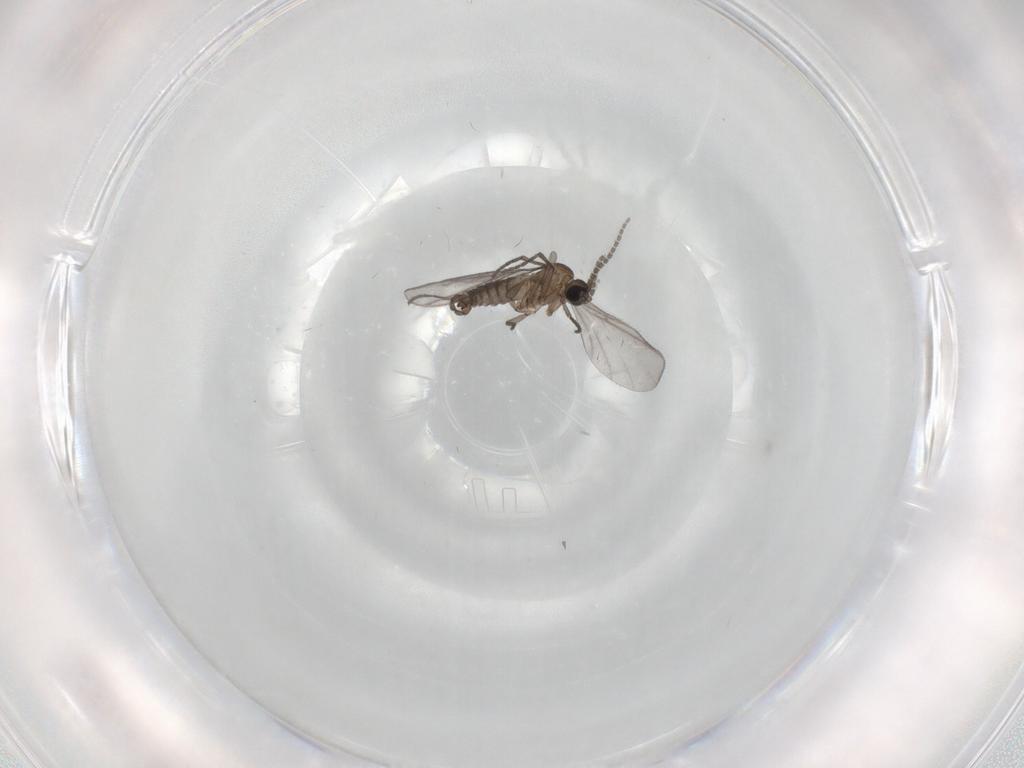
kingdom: Animalia
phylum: Arthropoda
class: Insecta
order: Diptera
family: Sciaridae
